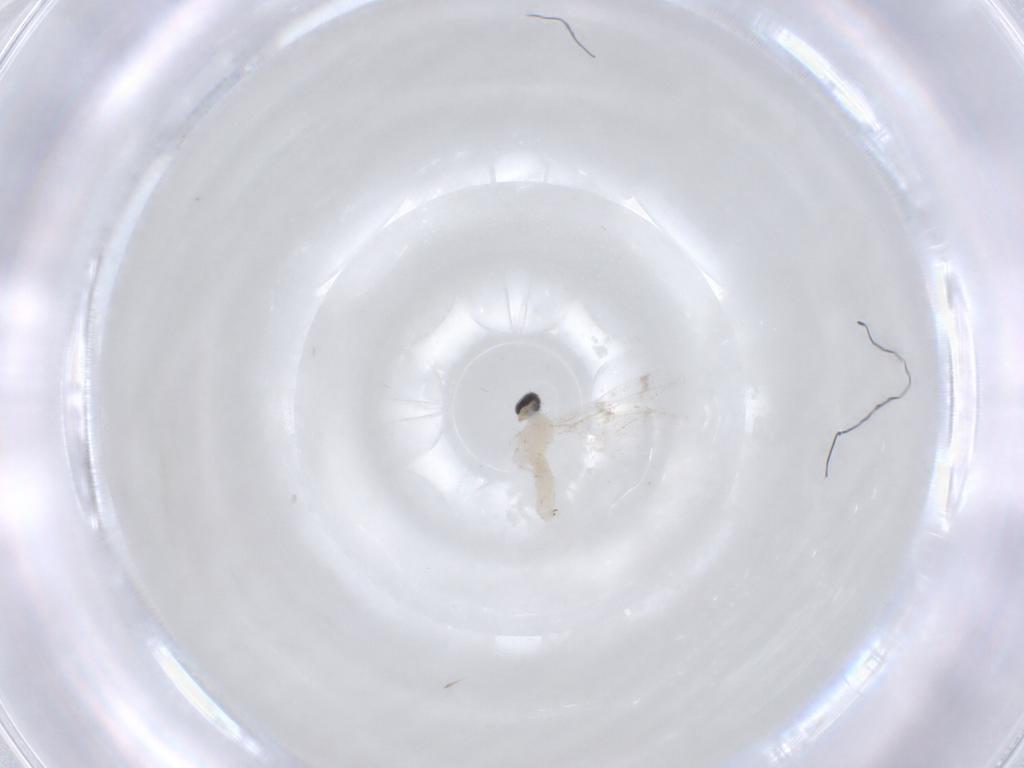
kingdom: Animalia
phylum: Arthropoda
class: Insecta
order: Diptera
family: Cecidomyiidae
